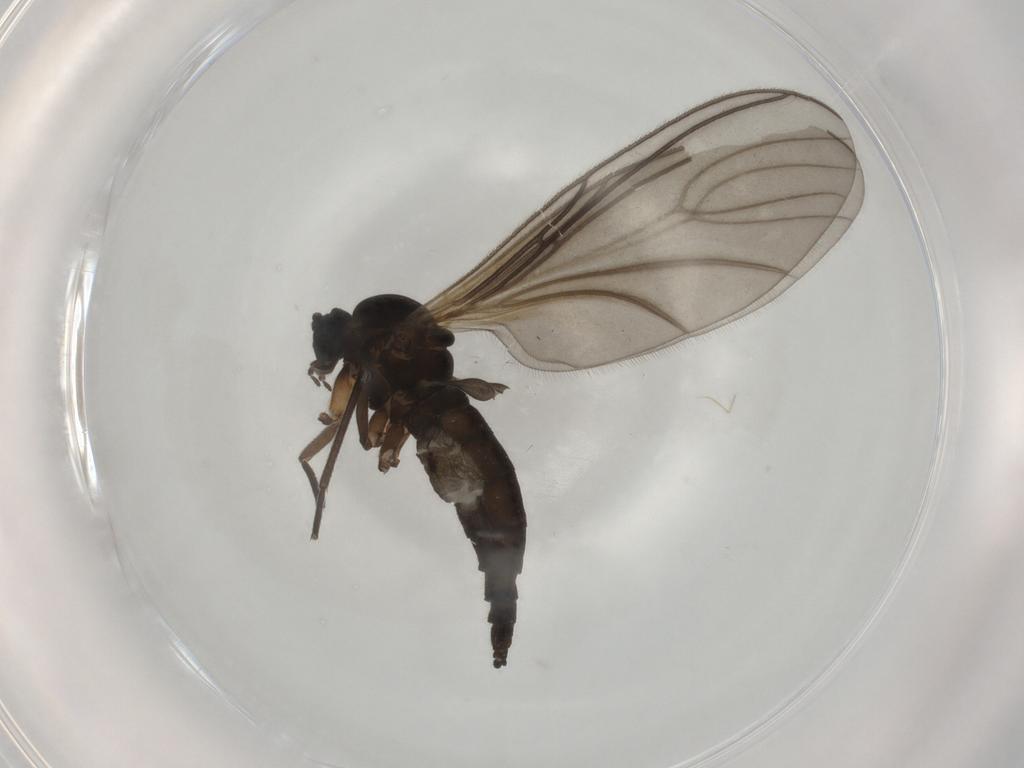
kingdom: Animalia
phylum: Arthropoda
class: Insecta
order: Diptera
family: Sciaridae
